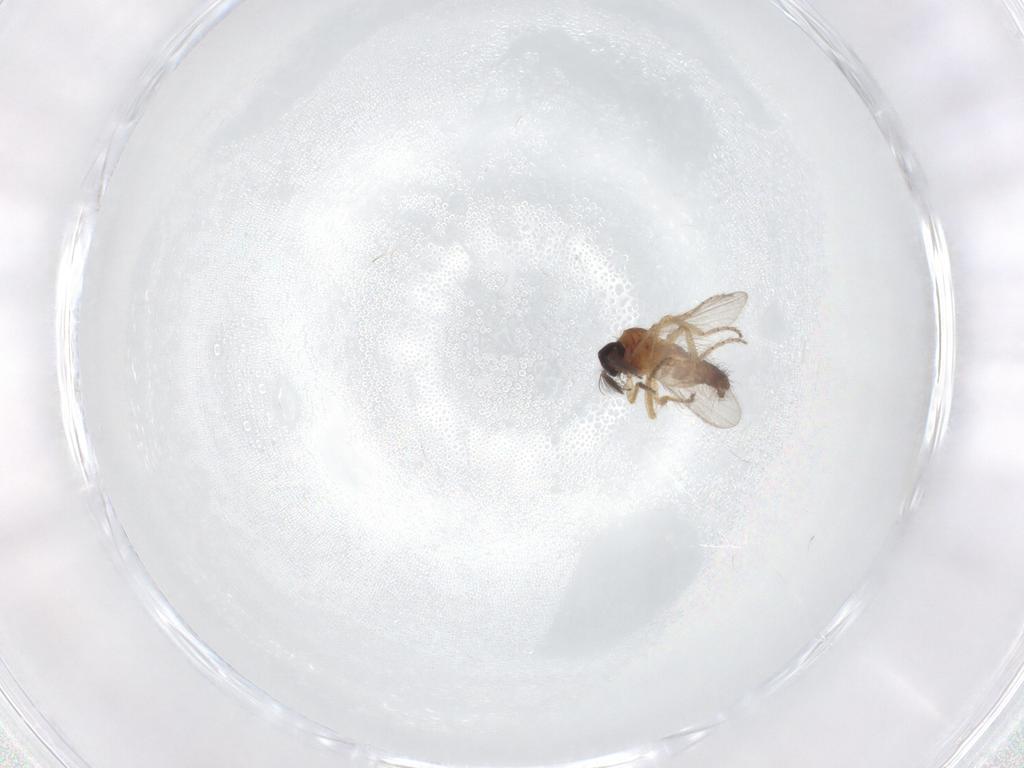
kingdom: Animalia
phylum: Arthropoda
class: Insecta
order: Diptera
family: Ceratopogonidae
